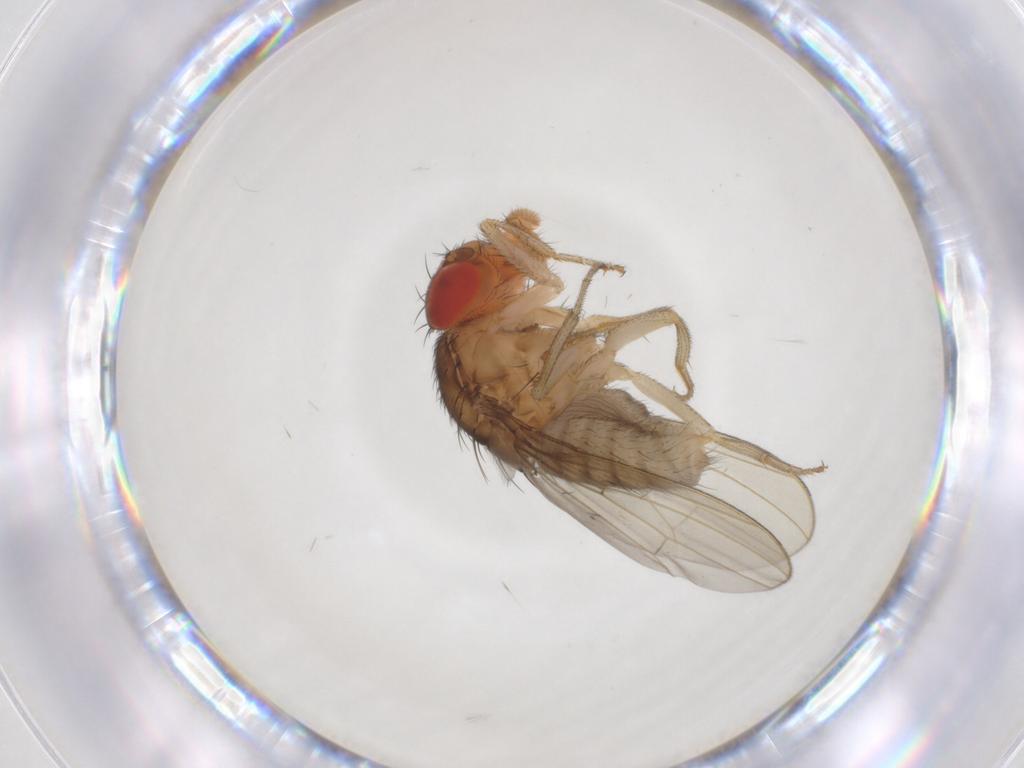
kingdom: Animalia
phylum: Arthropoda
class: Insecta
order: Diptera
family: Drosophilidae
